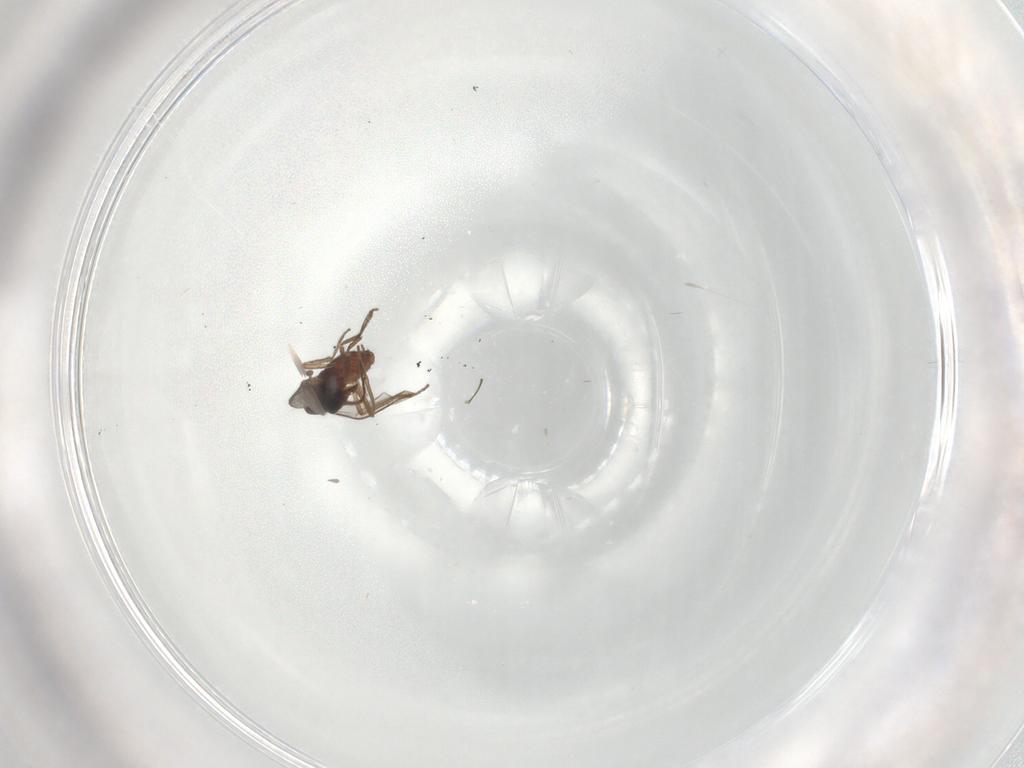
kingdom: Animalia
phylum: Arthropoda
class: Insecta
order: Diptera
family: Ceratopogonidae
